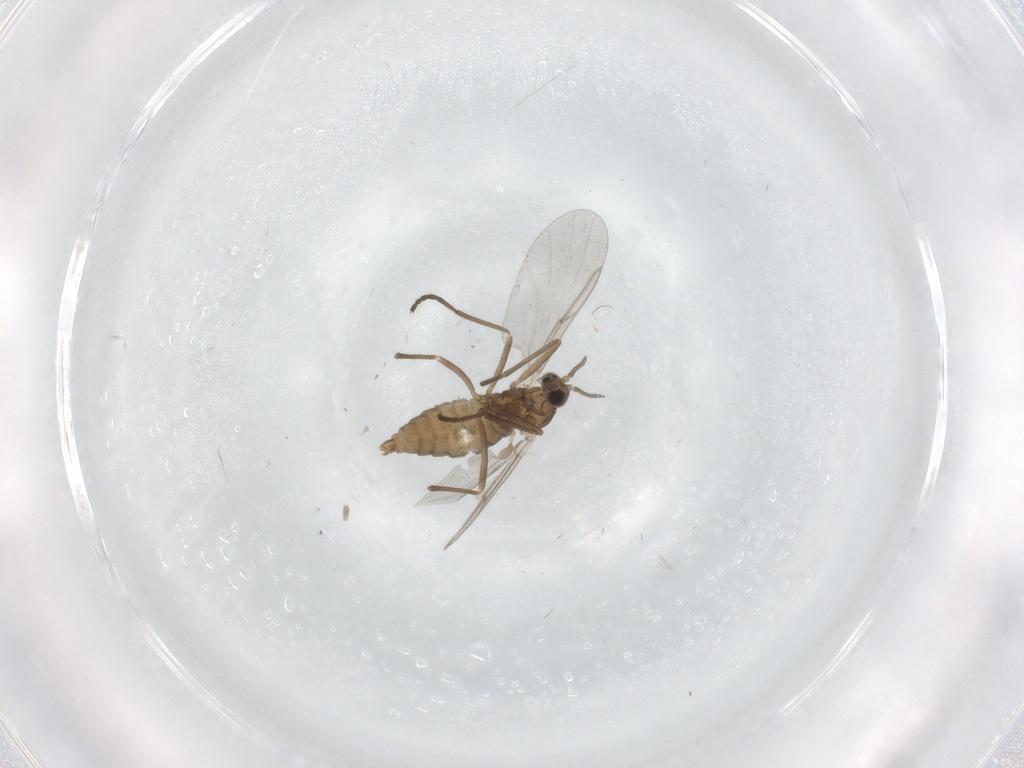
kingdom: Animalia
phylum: Arthropoda
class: Insecta
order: Diptera
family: Cecidomyiidae
